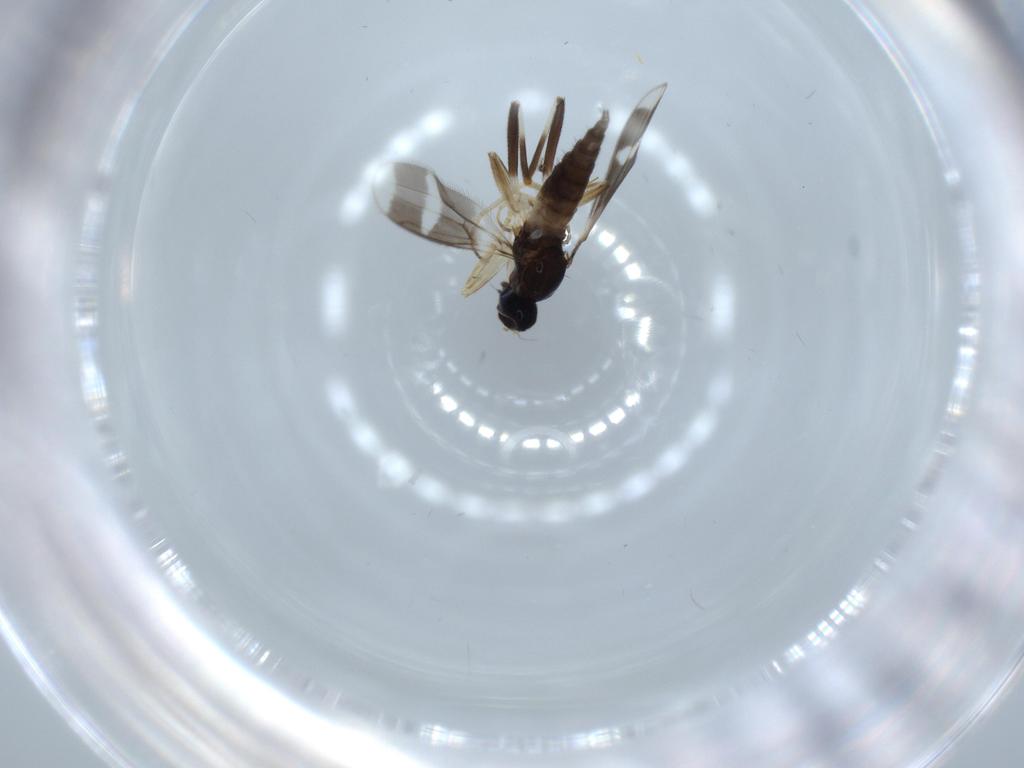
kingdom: Animalia
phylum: Arthropoda
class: Insecta
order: Diptera
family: Hybotidae
